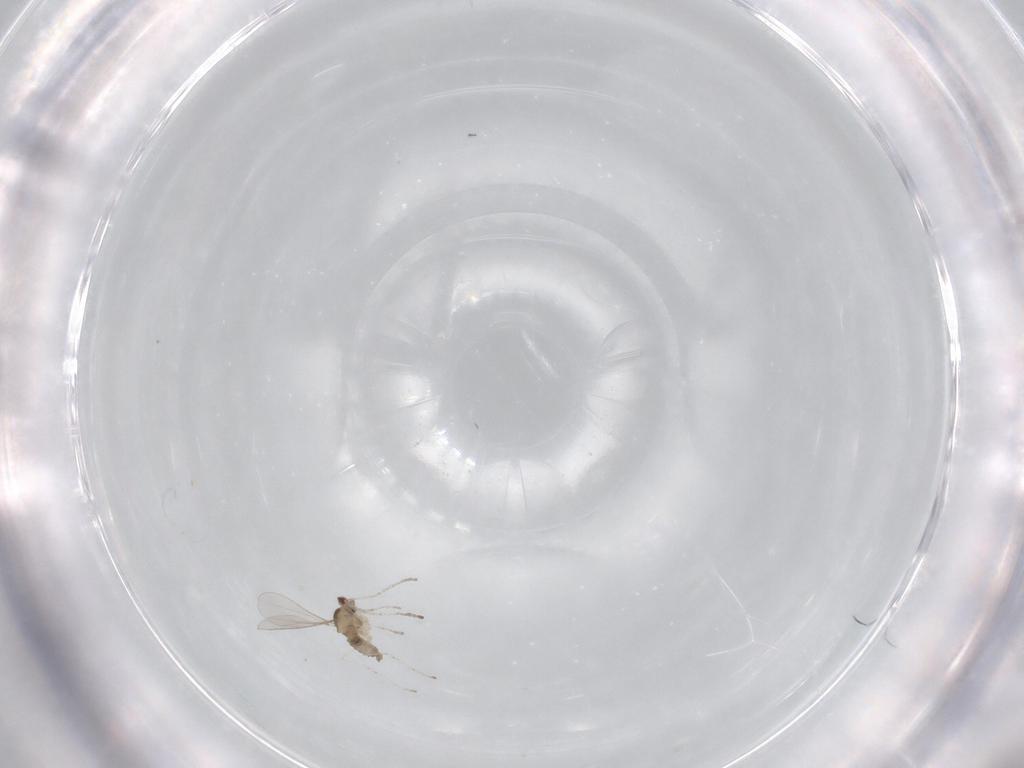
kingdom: Animalia
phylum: Arthropoda
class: Insecta
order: Diptera
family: Cecidomyiidae
